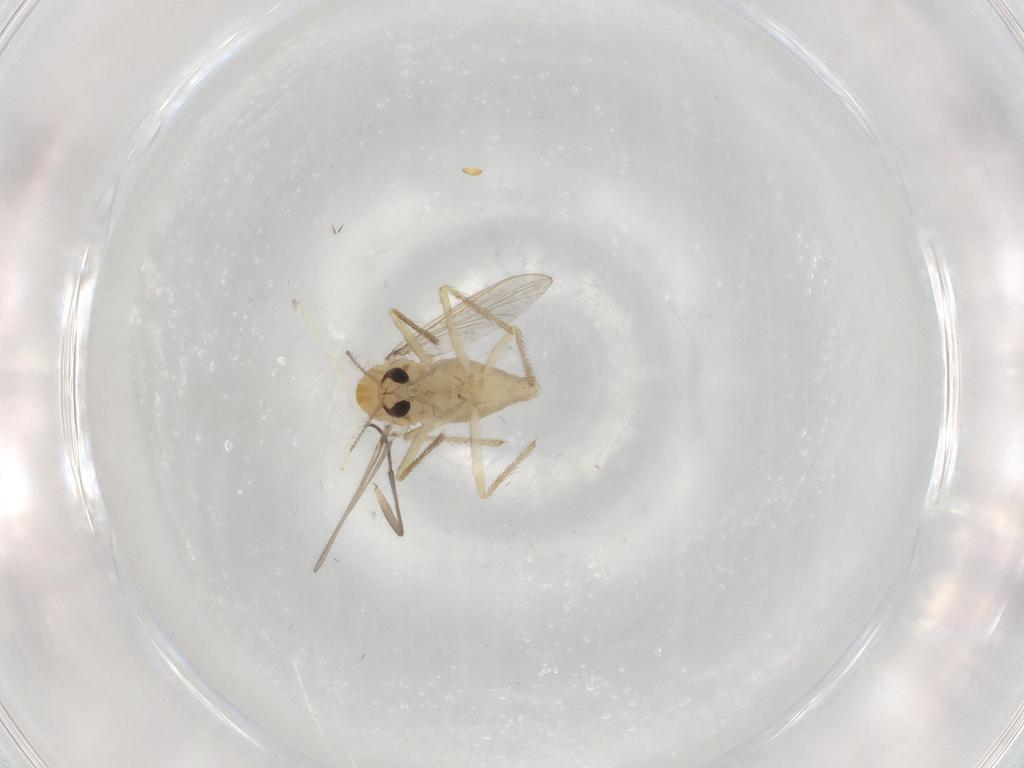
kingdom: Animalia
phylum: Arthropoda
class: Insecta
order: Diptera
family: Chironomidae
